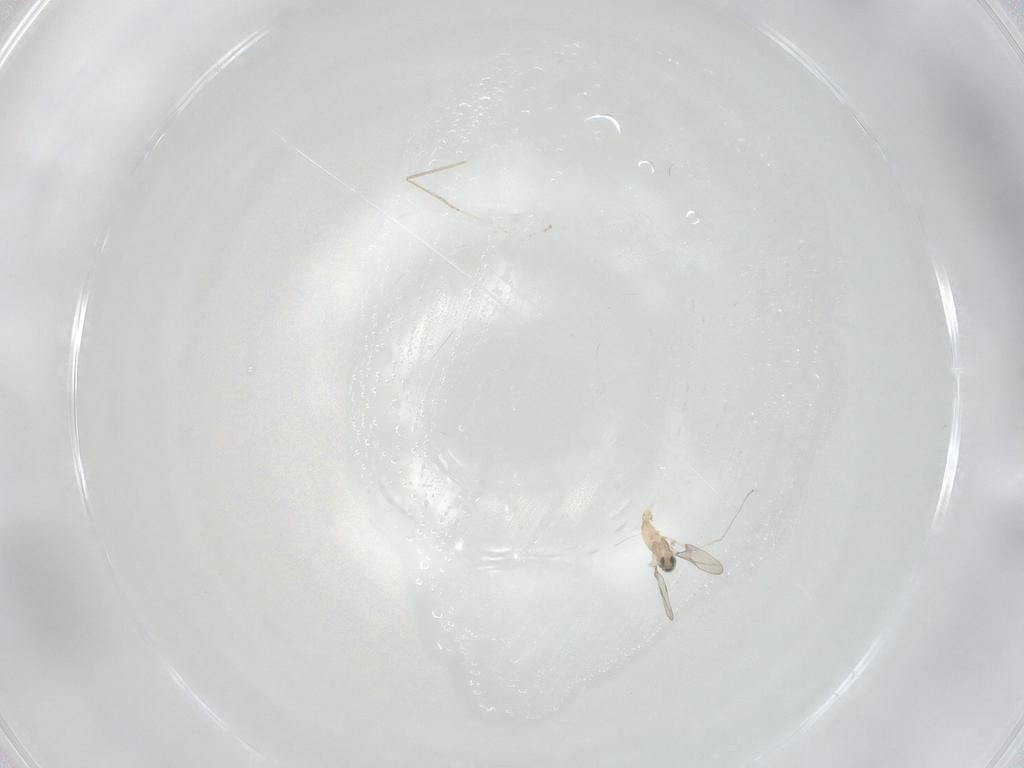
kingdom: Animalia
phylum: Arthropoda
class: Insecta
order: Diptera
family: Cecidomyiidae
